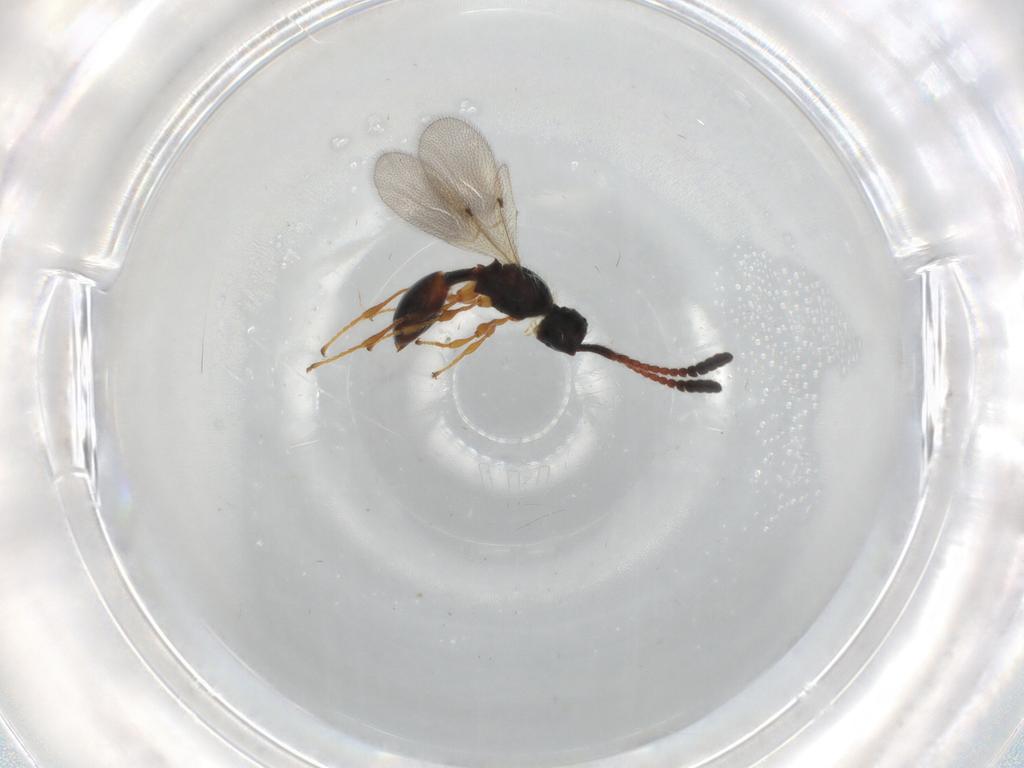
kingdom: Animalia
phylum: Arthropoda
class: Insecta
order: Hymenoptera
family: Diapriidae
